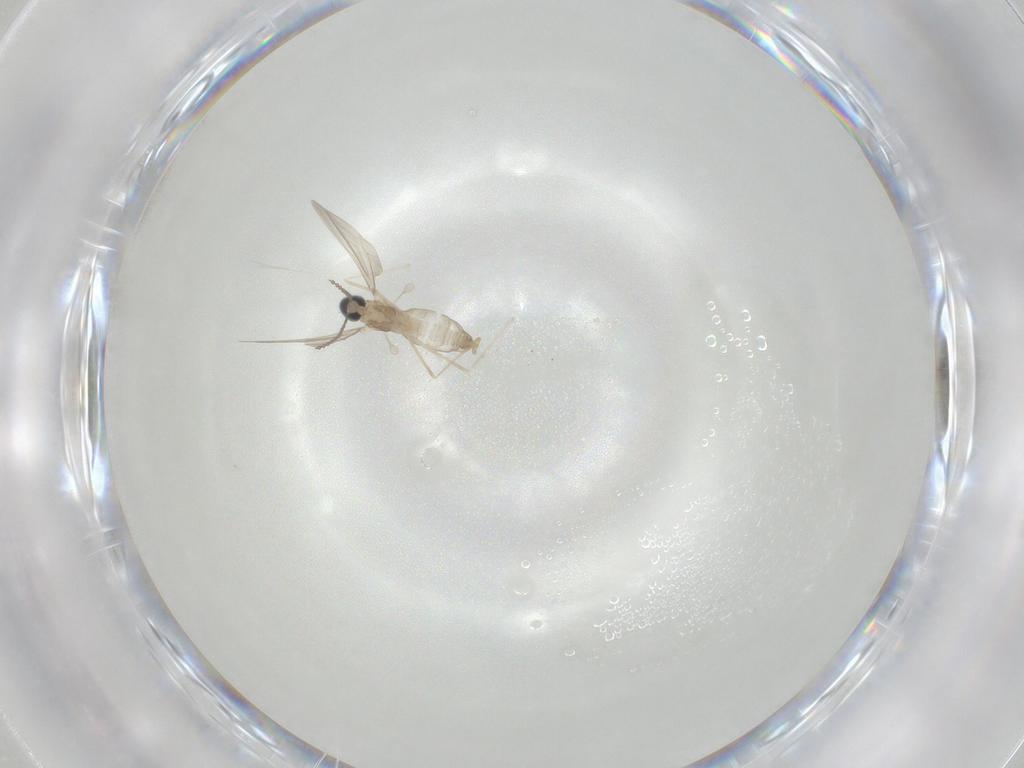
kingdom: Animalia
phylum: Arthropoda
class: Insecta
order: Diptera
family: Cecidomyiidae
